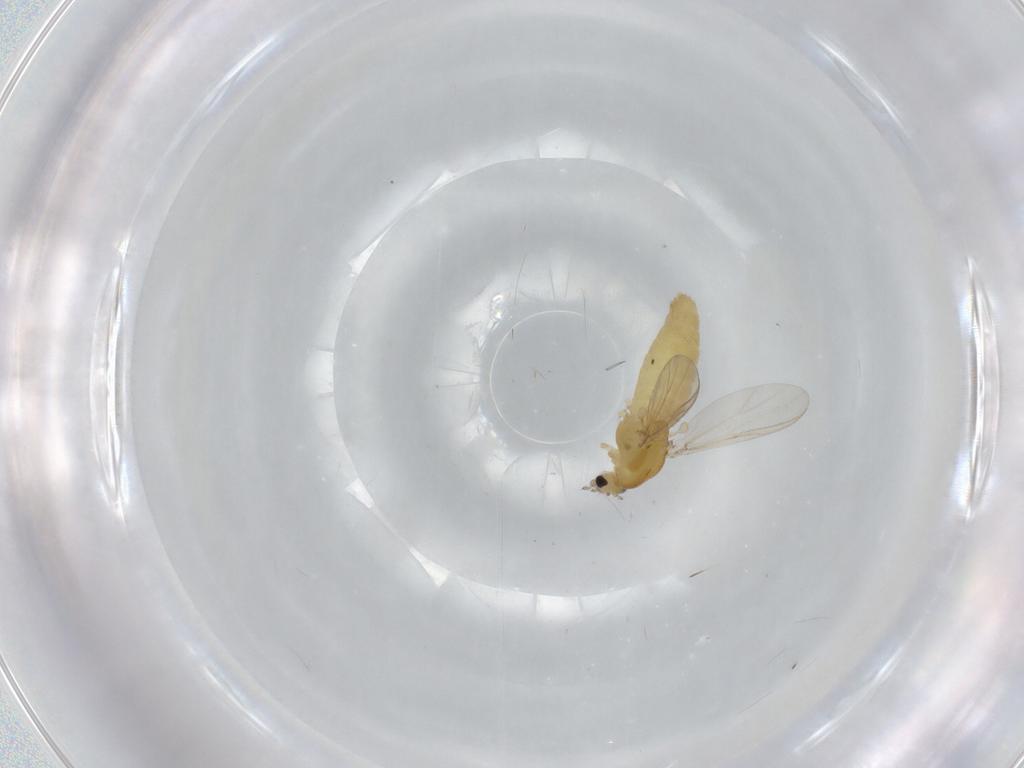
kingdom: Animalia
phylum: Arthropoda
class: Insecta
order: Diptera
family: Chironomidae
